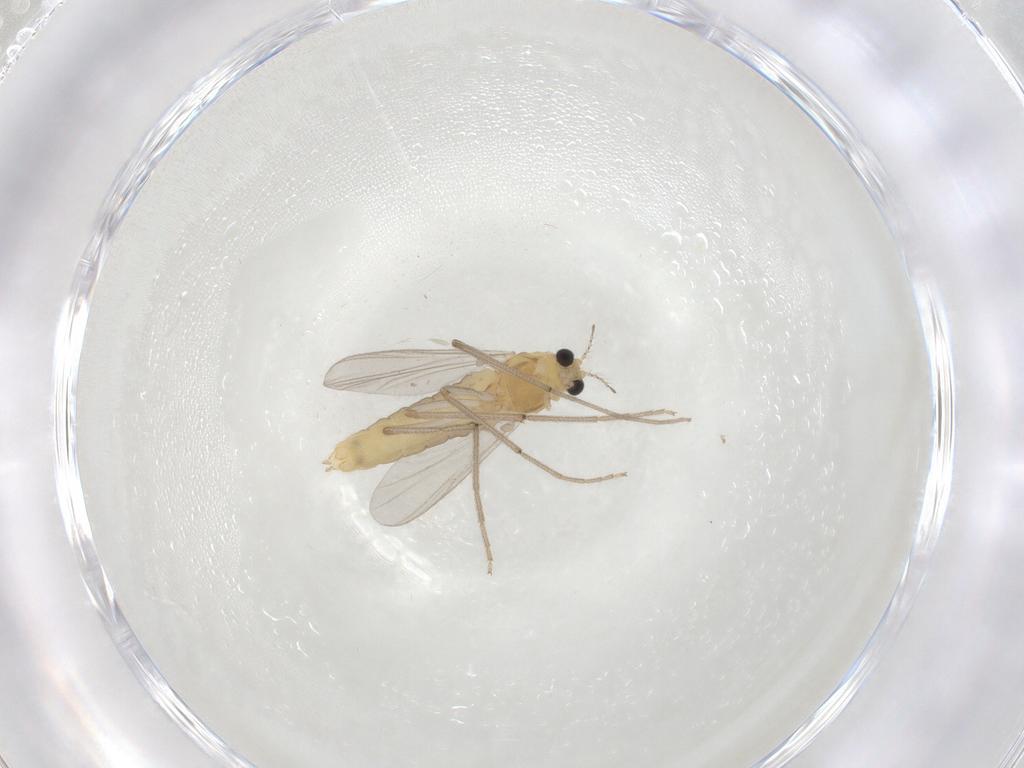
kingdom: Animalia
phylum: Arthropoda
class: Insecta
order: Diptera
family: Chironomidae
